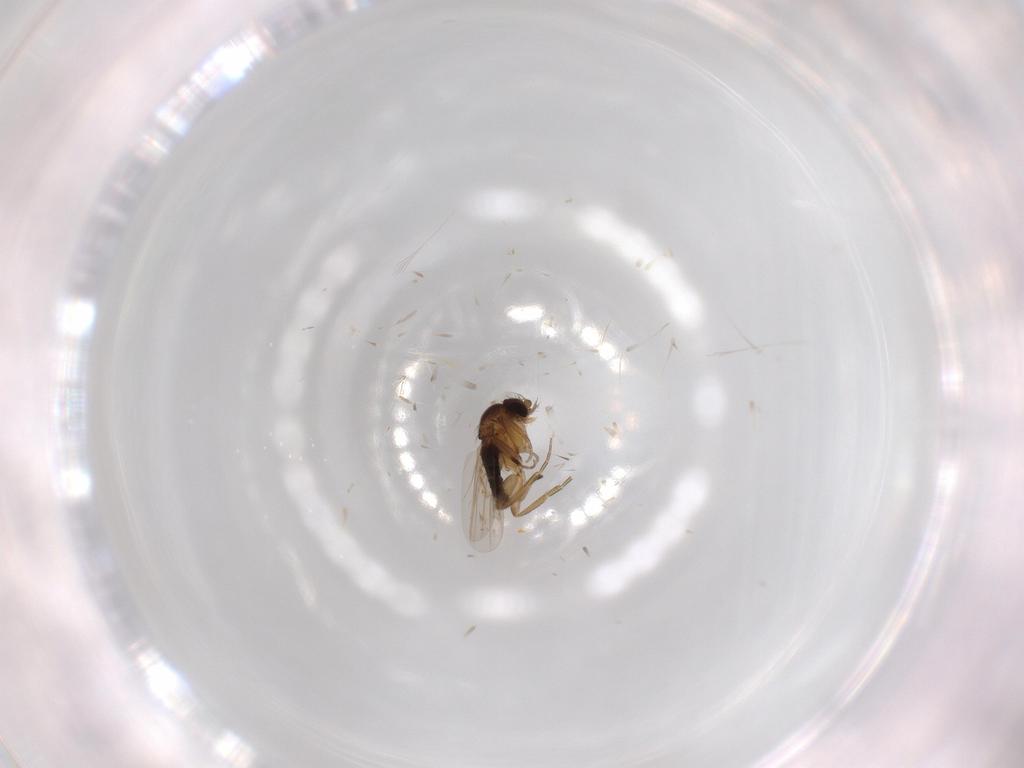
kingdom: Animalia
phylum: Arthropoda
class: Insecta
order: Diptera
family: Phoridae
